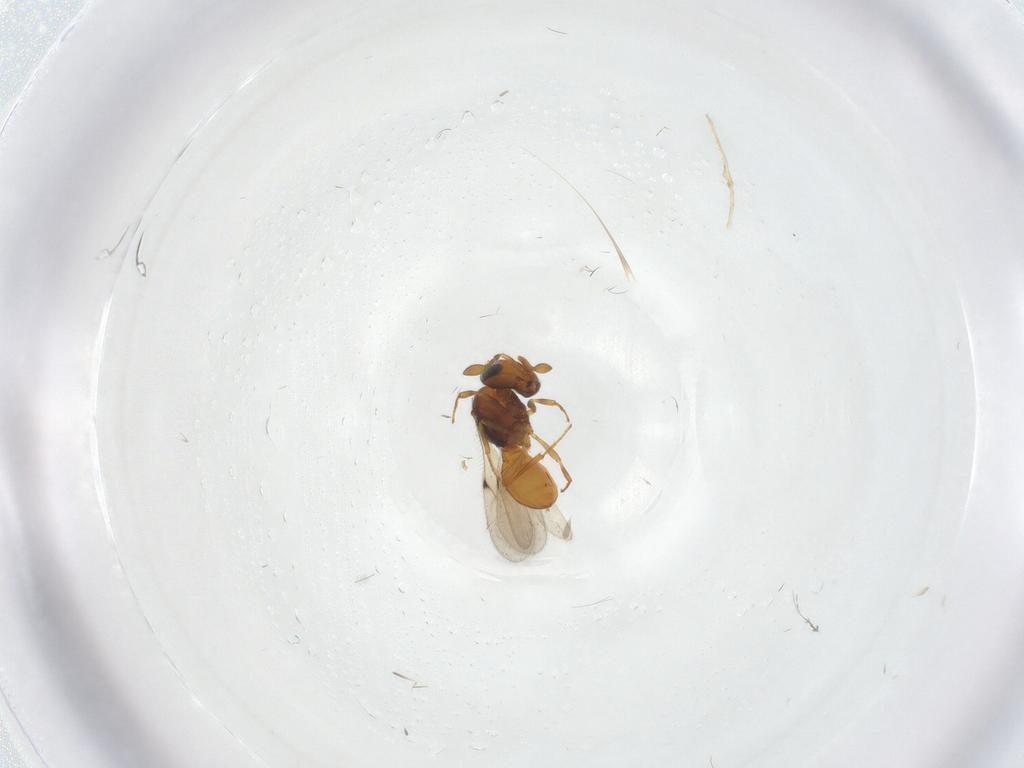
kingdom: Animalia
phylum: Arthropoda
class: Insecta
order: Hymenoptera
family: Scelionidae
